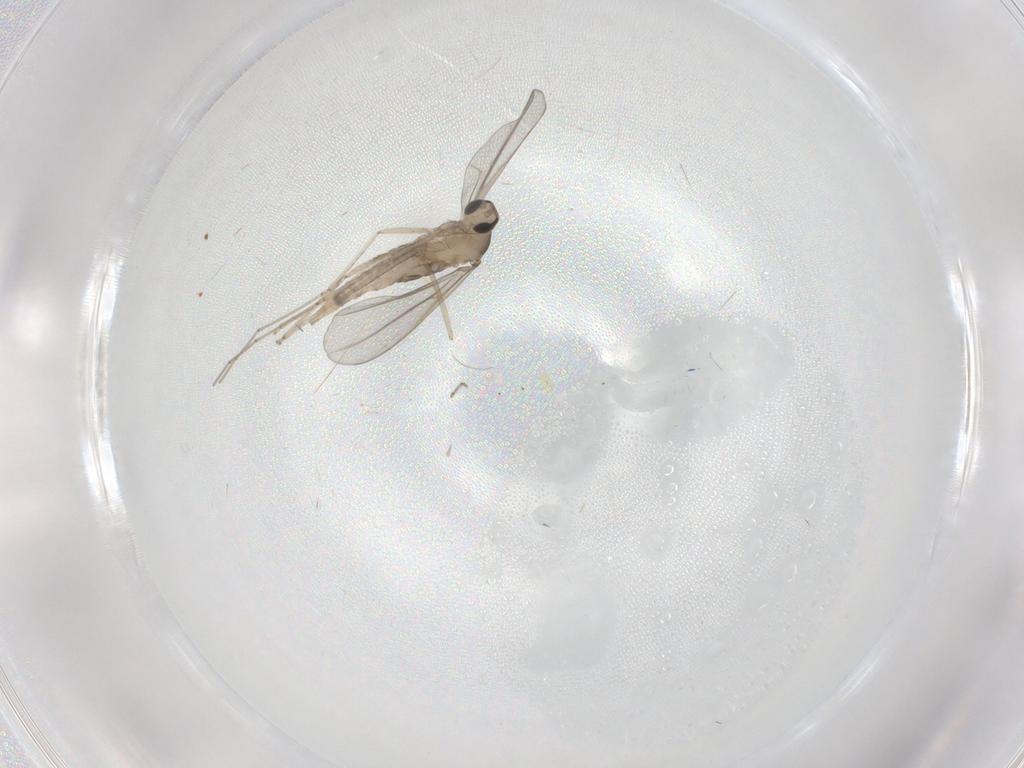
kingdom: Animalia
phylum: Arthropoda
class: Insecta
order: Diptera
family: Cecidomyiidae
